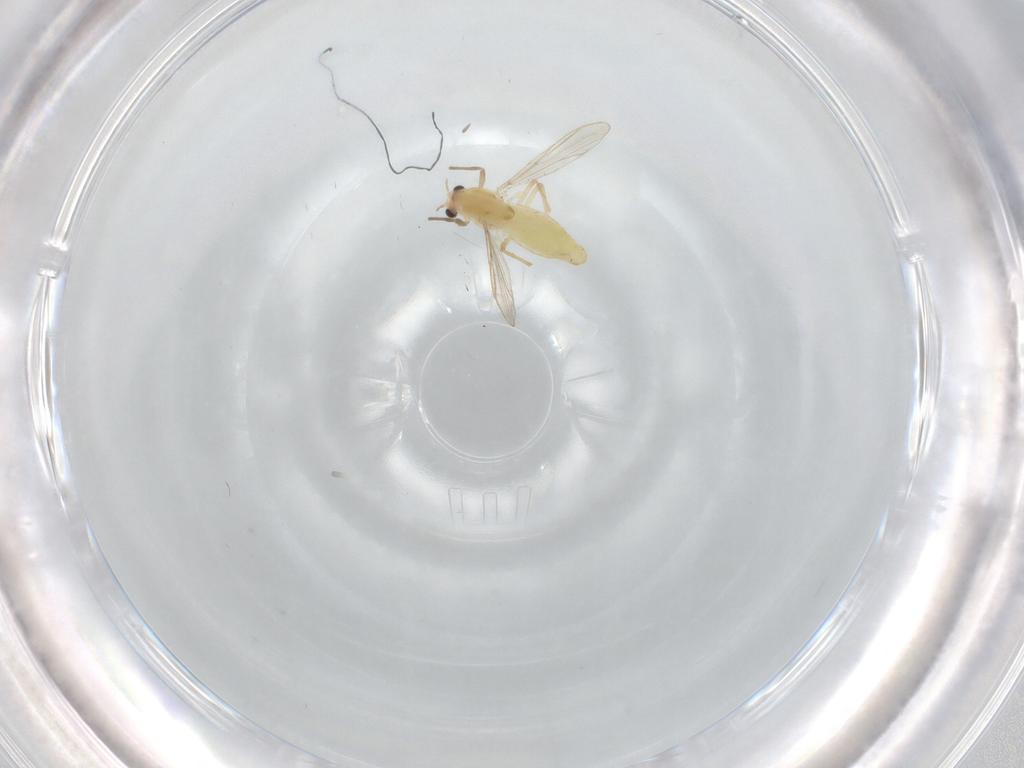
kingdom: Animalia
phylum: Arthropoda
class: Insecta
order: Diptera
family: Chironomidae
